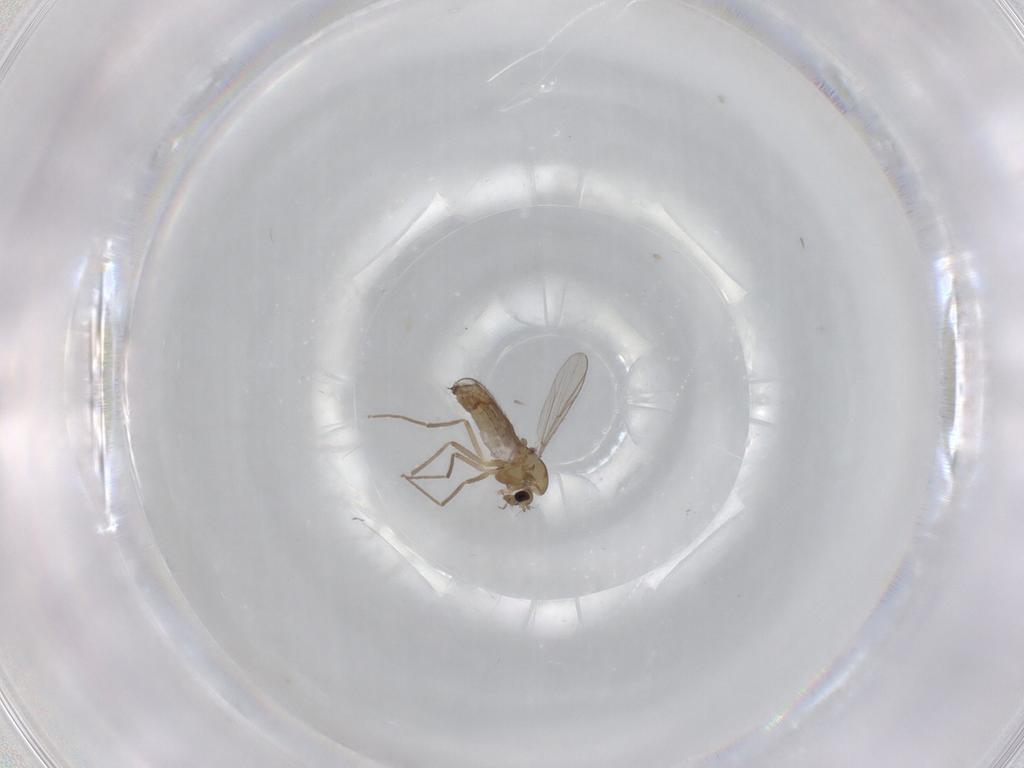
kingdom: Animalia
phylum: Arthropoda
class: Insecta
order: Diptera
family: Chironomidae
